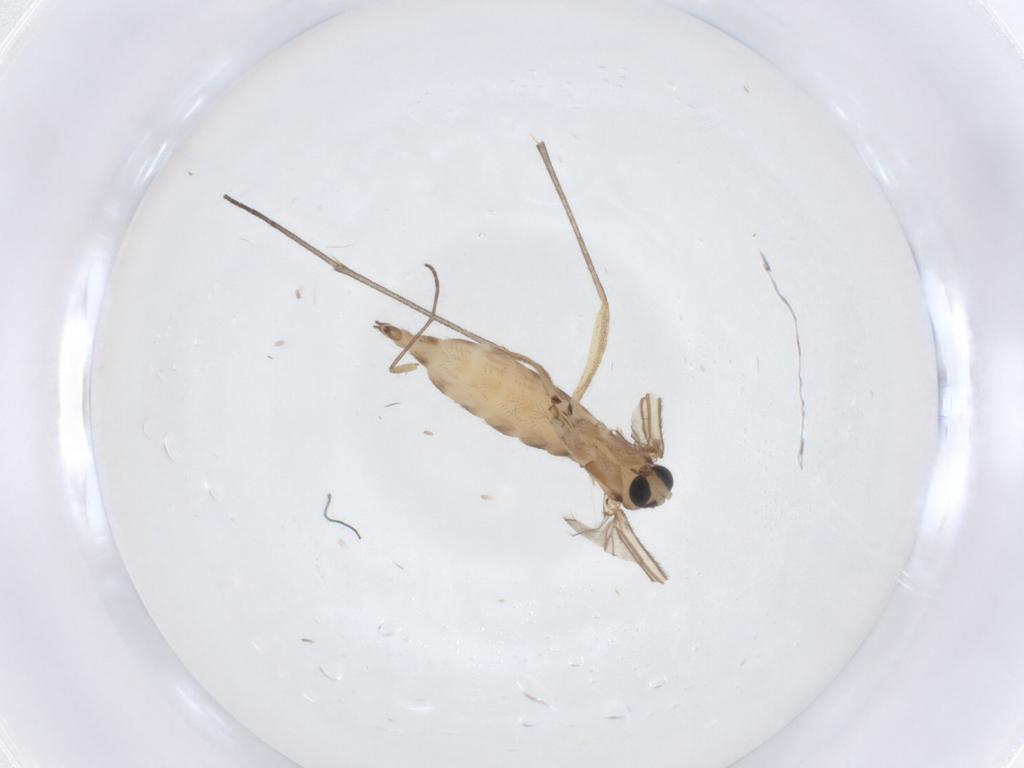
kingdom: Animalia
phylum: Arthropoda
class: Insecta
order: Diptera
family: Sciaridae
